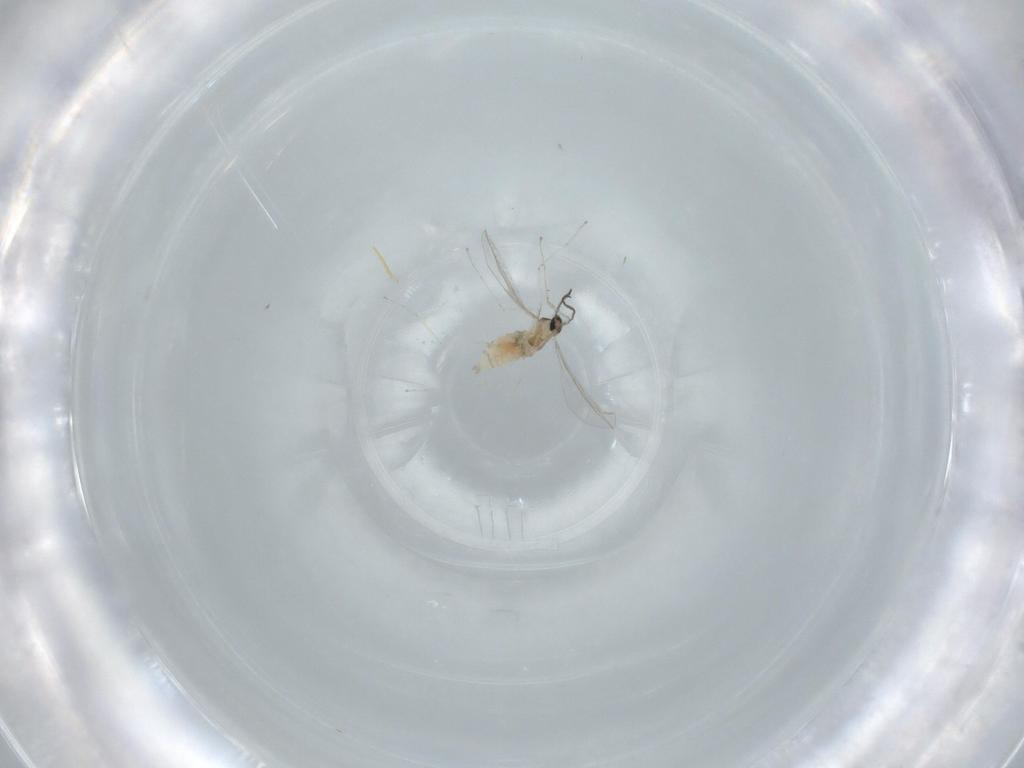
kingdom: Animalia
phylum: Arthropoda
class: Insecta
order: Diptera
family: Cecidomyiidae
